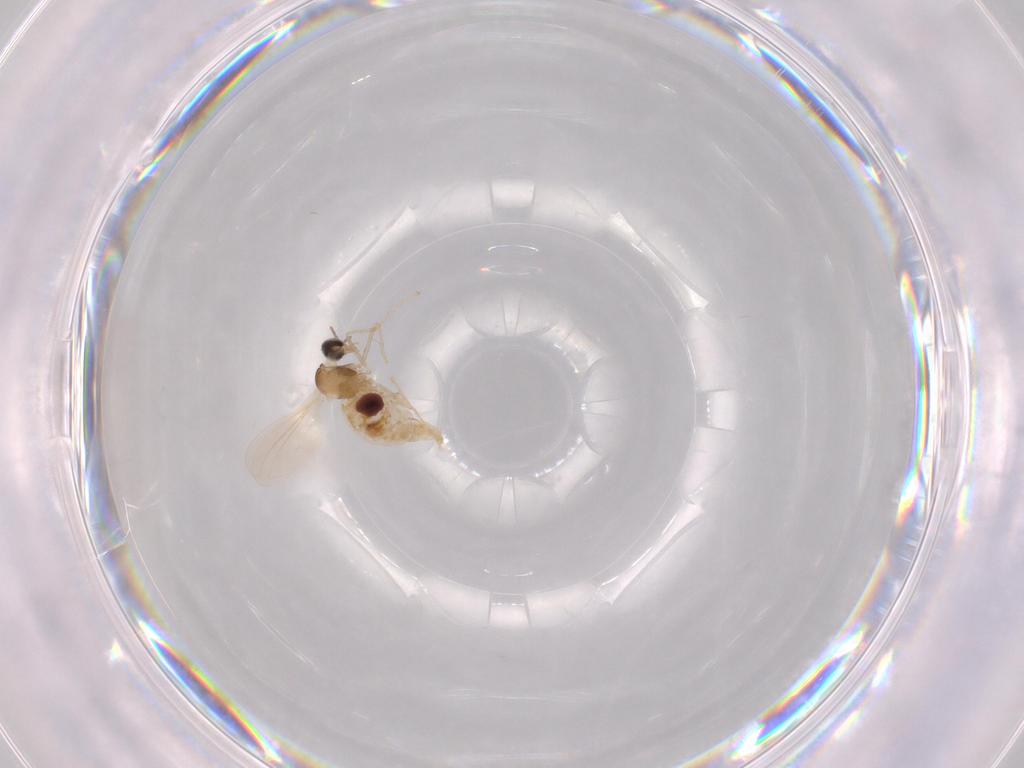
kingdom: Animalia
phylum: Arthropoda
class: Insecta
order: Diptera
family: Cecidomyiidae
